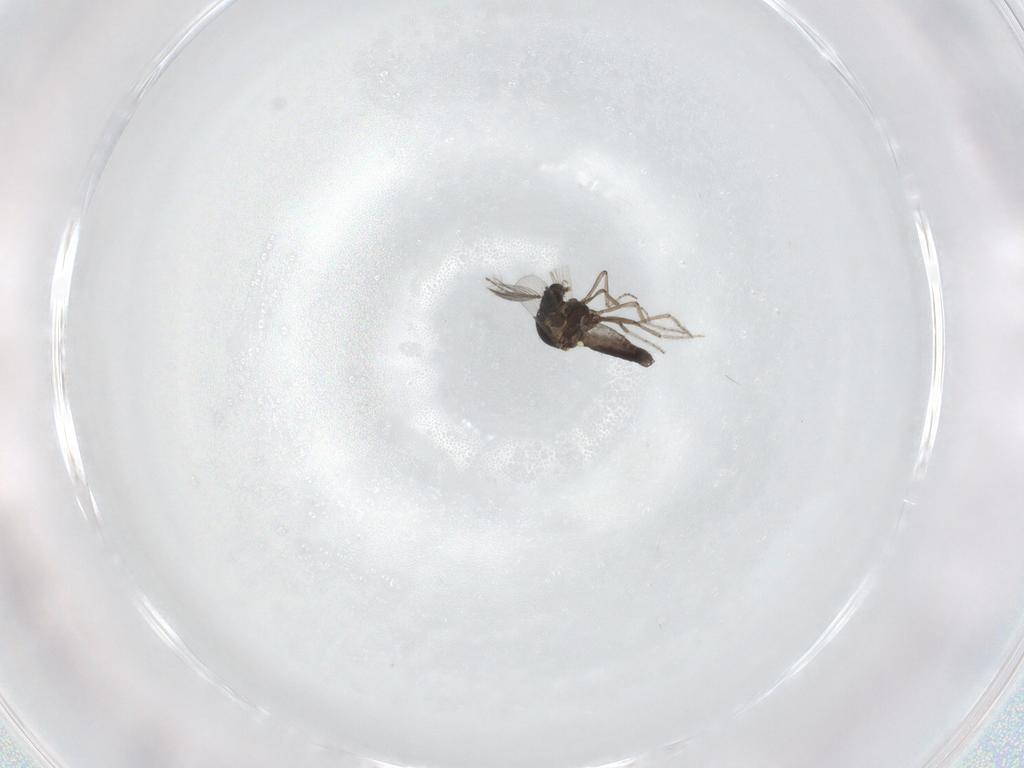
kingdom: Animalia
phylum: Arthropoda
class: Insecta
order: Diptera
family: Ceratopogonidae
